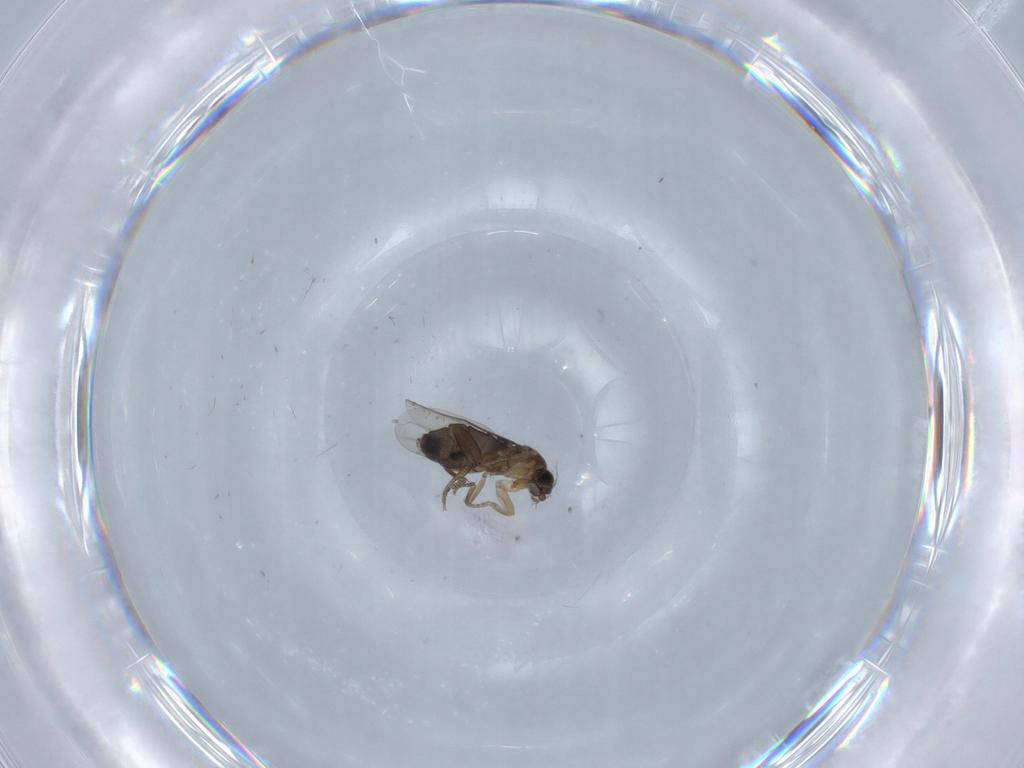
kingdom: Animalia
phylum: Arthropoda
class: Insecta
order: Diptera
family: Phoridae
